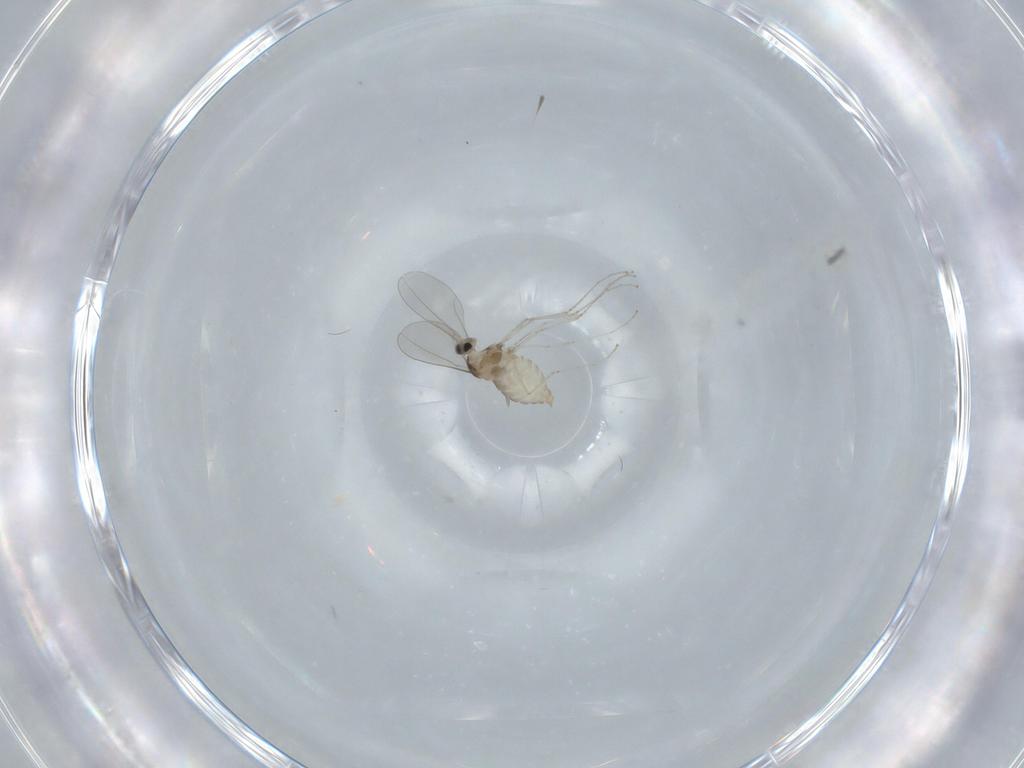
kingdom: Animalia
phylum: Arthropoda
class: Insecta
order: Diptera
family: Cecidomyiidae
